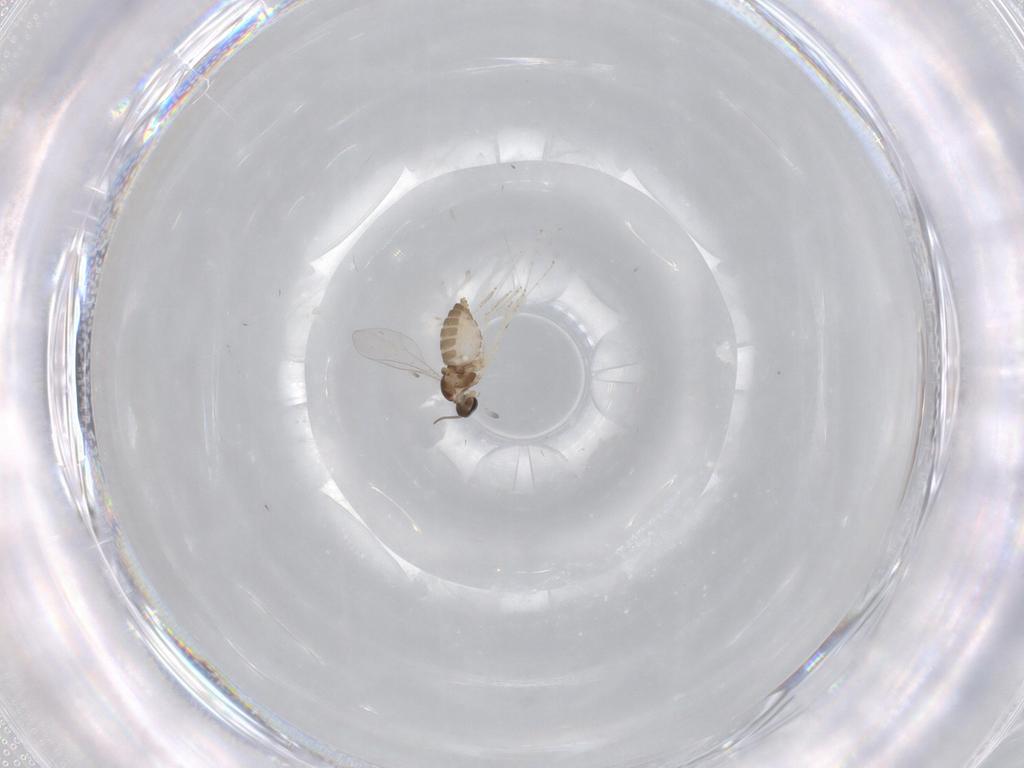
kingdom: Animalia
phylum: Arthropoda
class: Insecta
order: Diptera
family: Cecidomyiidae
